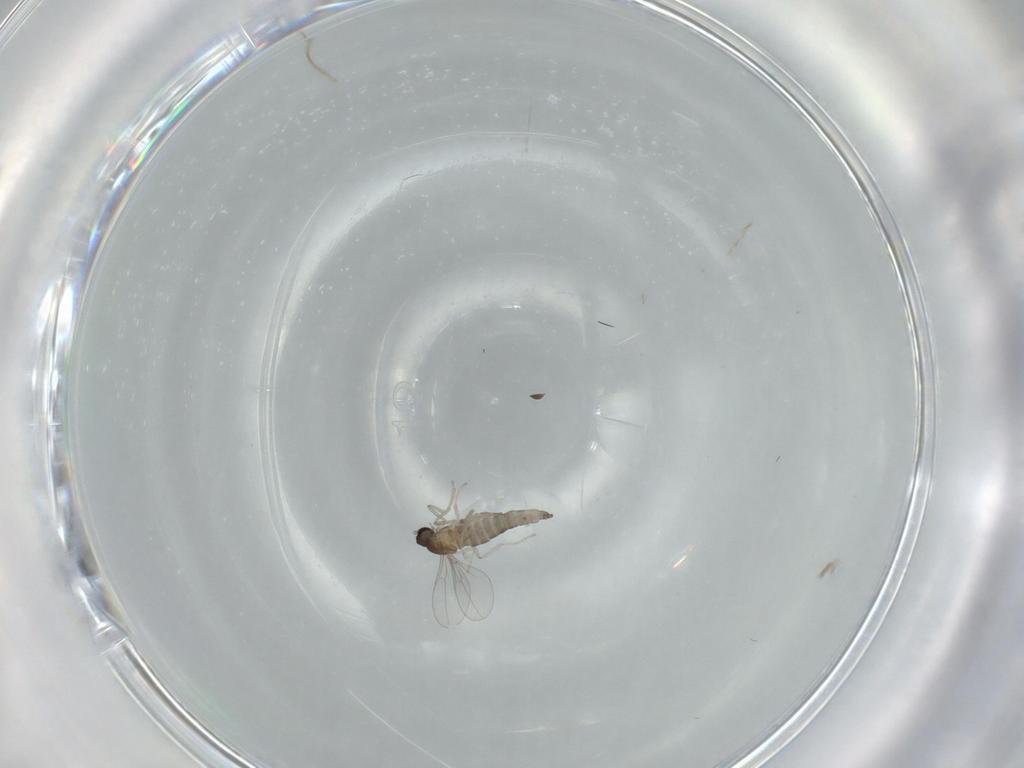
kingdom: Animalia
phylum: Arthropoda
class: Insecta
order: Diptera
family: Cecidomyiidae
